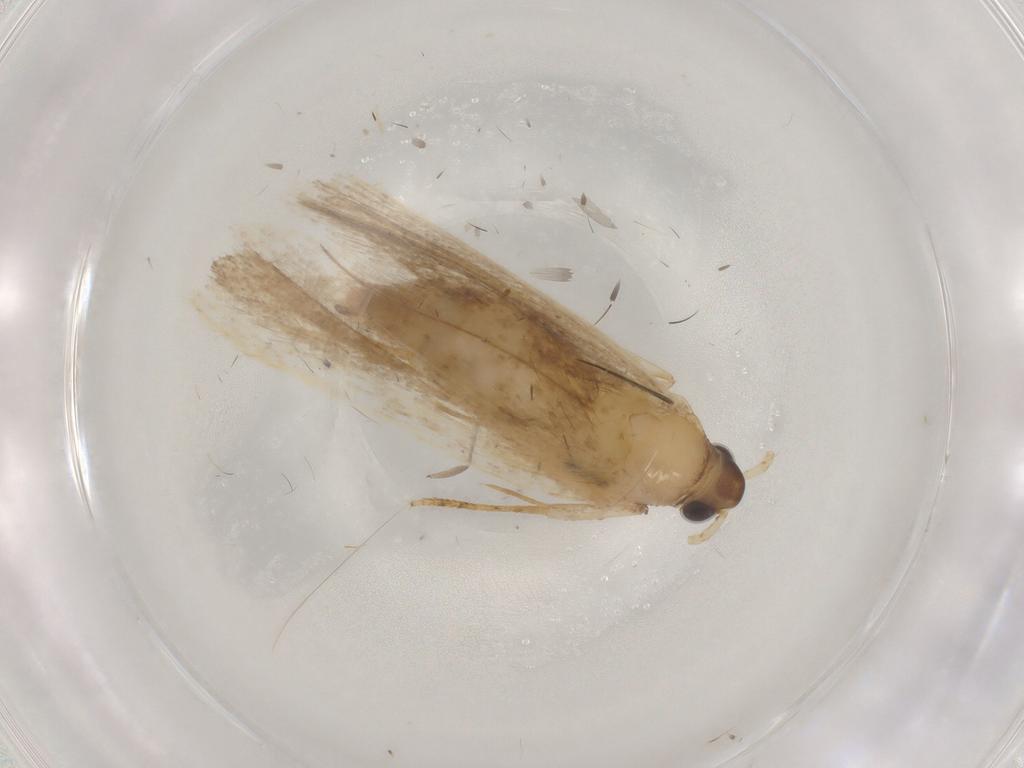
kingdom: Animalia
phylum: Arthropoda
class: Insecta
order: Lepidoptera
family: Lecithoceridae
